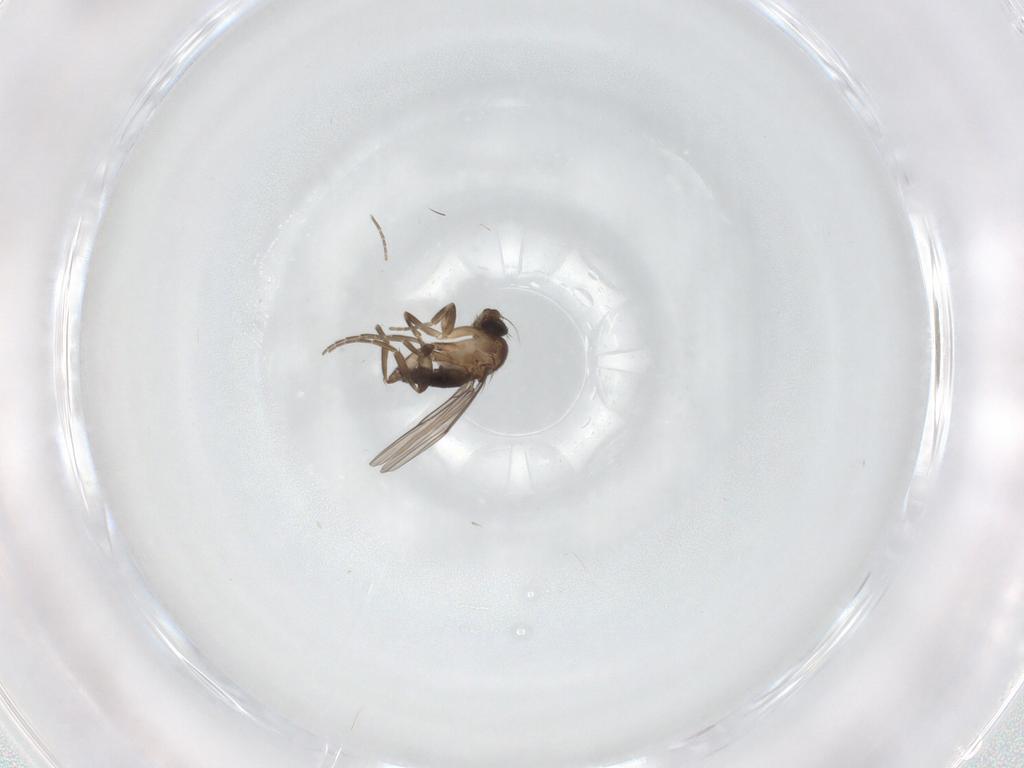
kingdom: Animalia
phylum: Arthropoda
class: Insecta
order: Diptera
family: Phoridae
